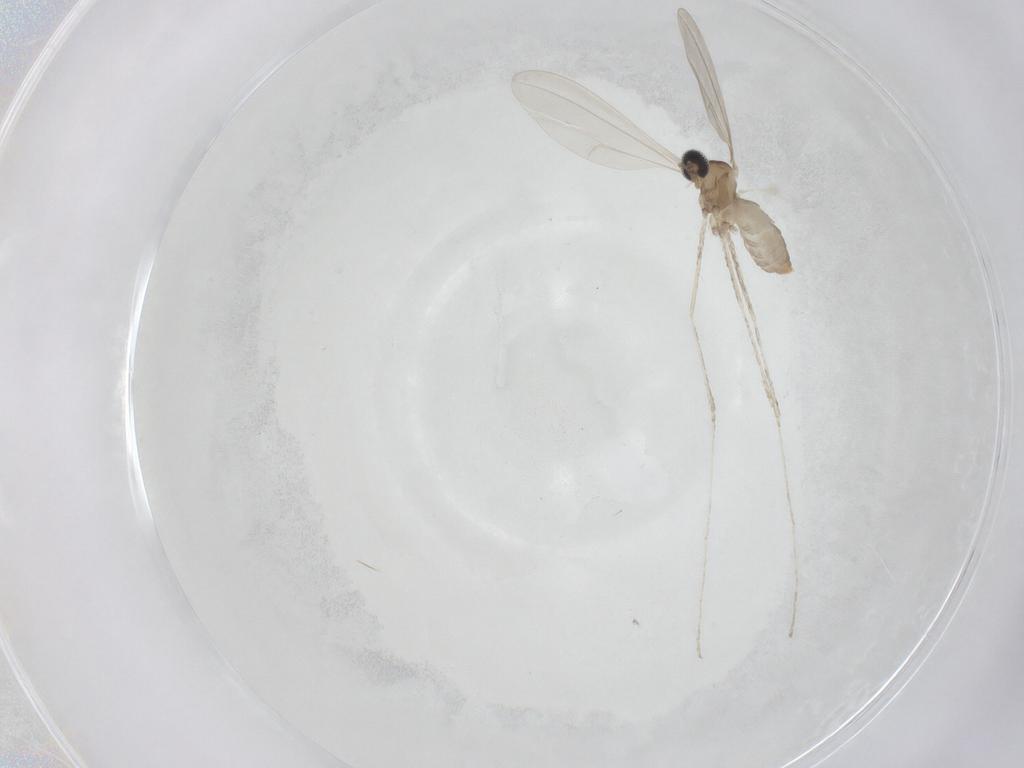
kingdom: Animalia
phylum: Arthropoda
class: Insecta
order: Diptera
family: Cecidomyiidae
